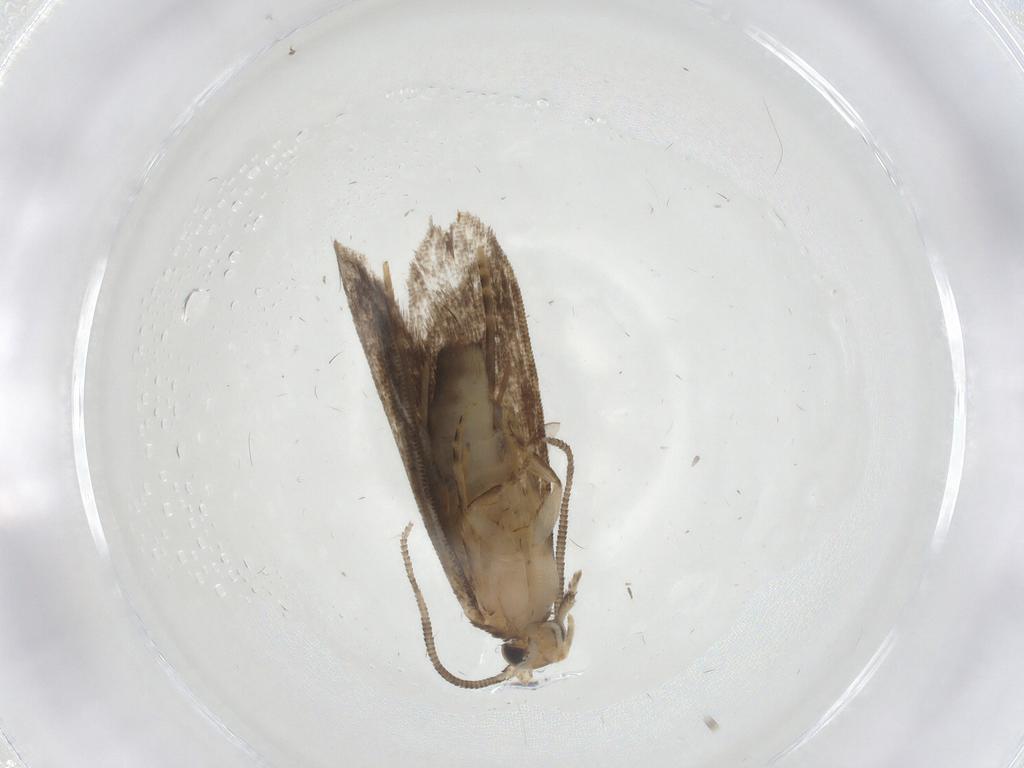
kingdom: Animalia
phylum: Arthropoda
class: Insecta
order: Lepidoptera
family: Dryadaulidae
